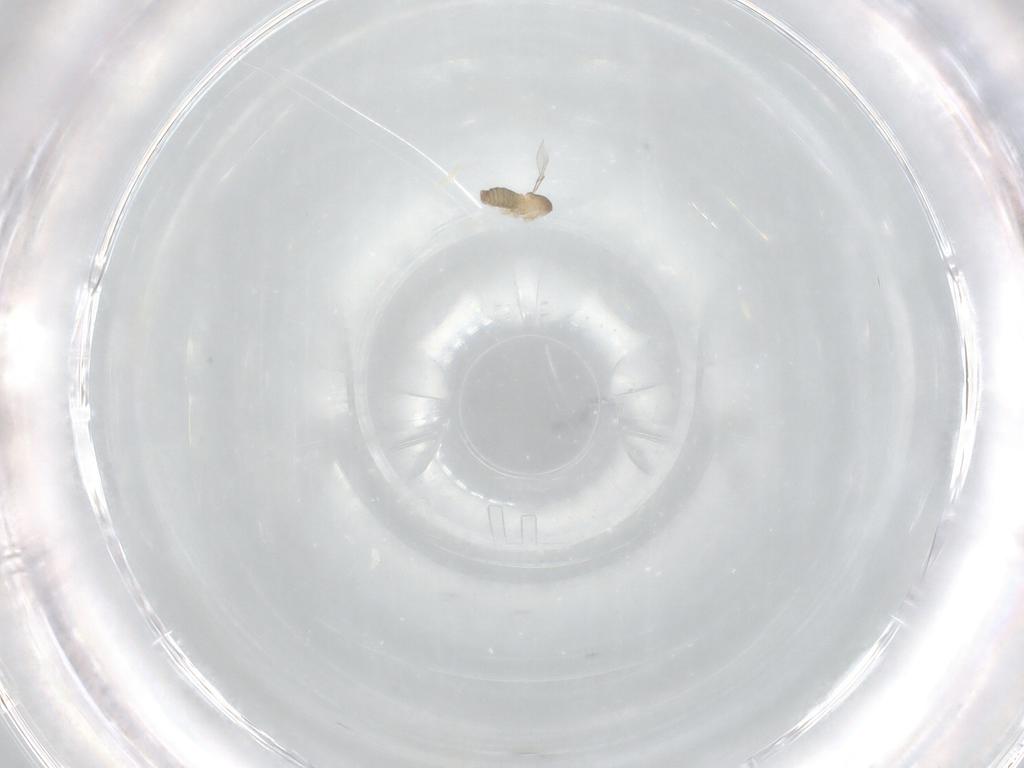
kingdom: Animalia
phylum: Arthropoda
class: Insecta
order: Diptera
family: Cecidomyiidae
